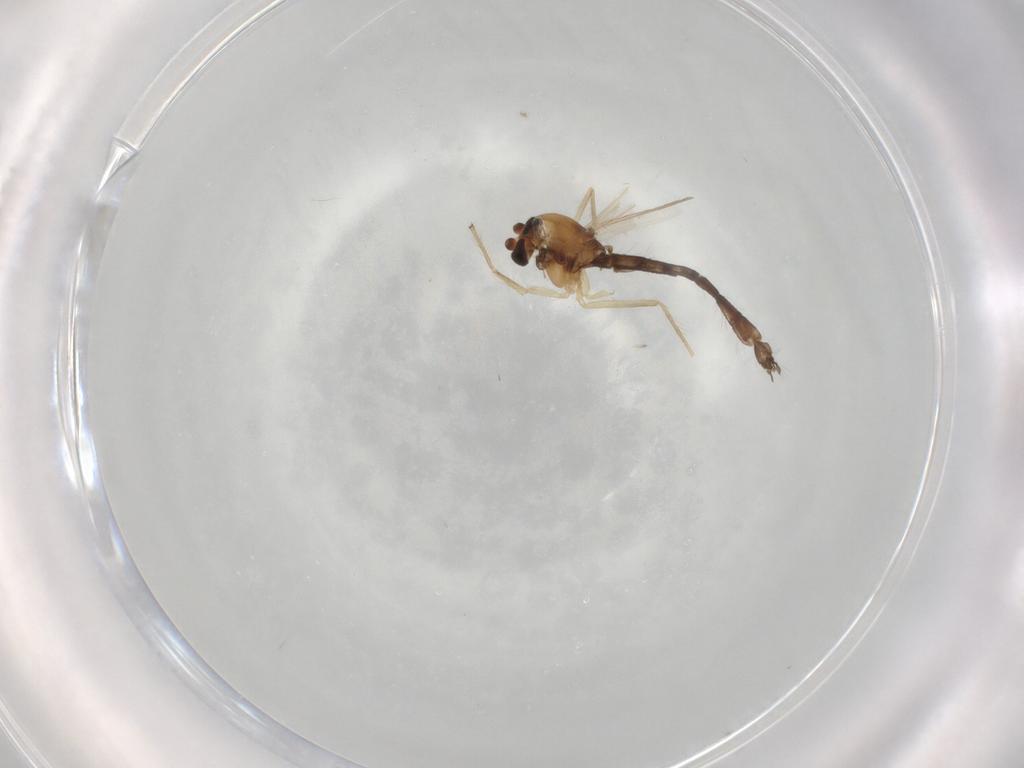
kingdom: Animalia
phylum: Arthropoda
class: Insecta
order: Diptera
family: Chironomidae
